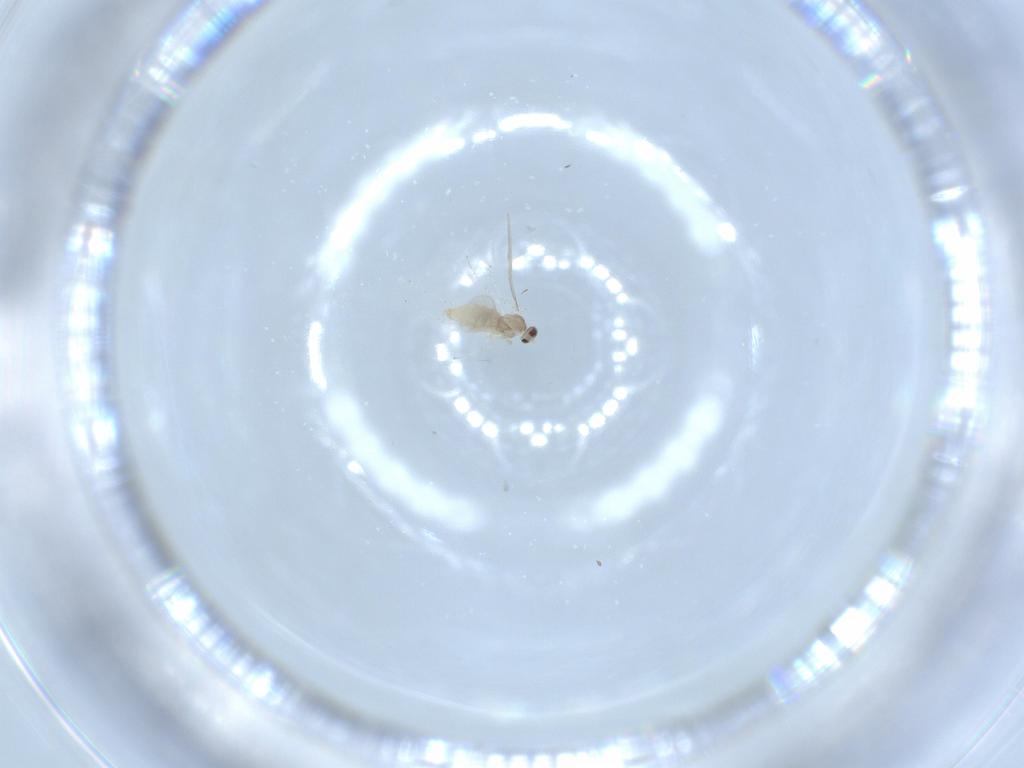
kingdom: Animalia
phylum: Arthropoda
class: Insecta
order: Diptera
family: Cecidomyiidae
